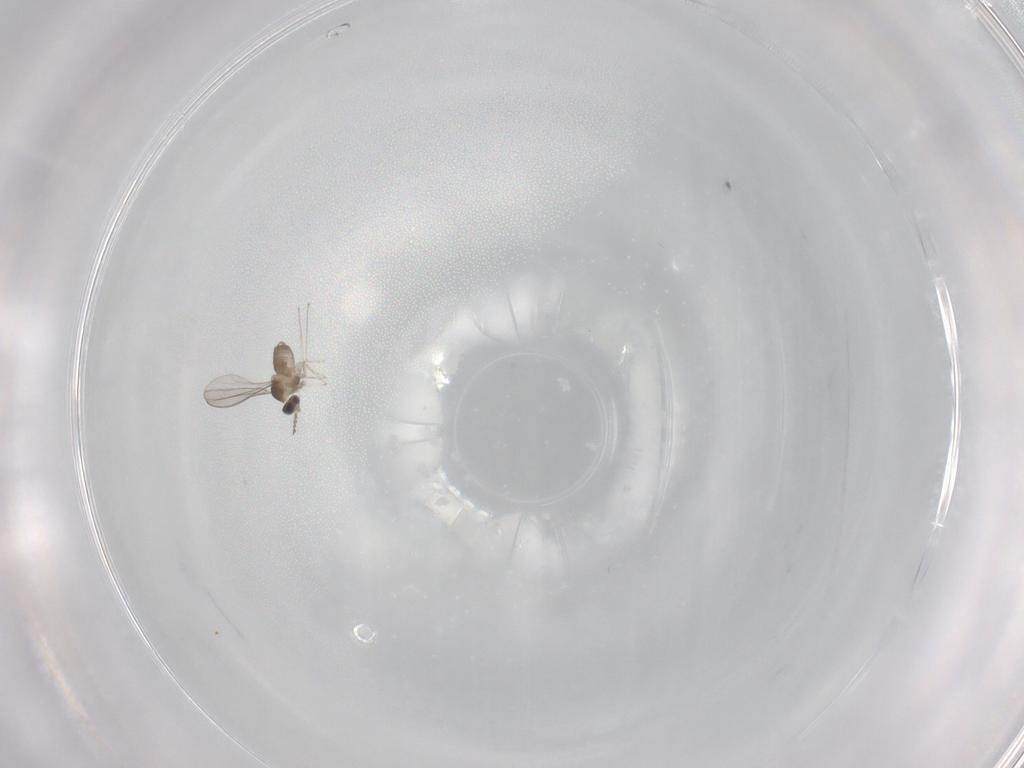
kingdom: Animalia
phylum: Arthropoda
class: Insecta
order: Diptera
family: Cecidomyiidae
